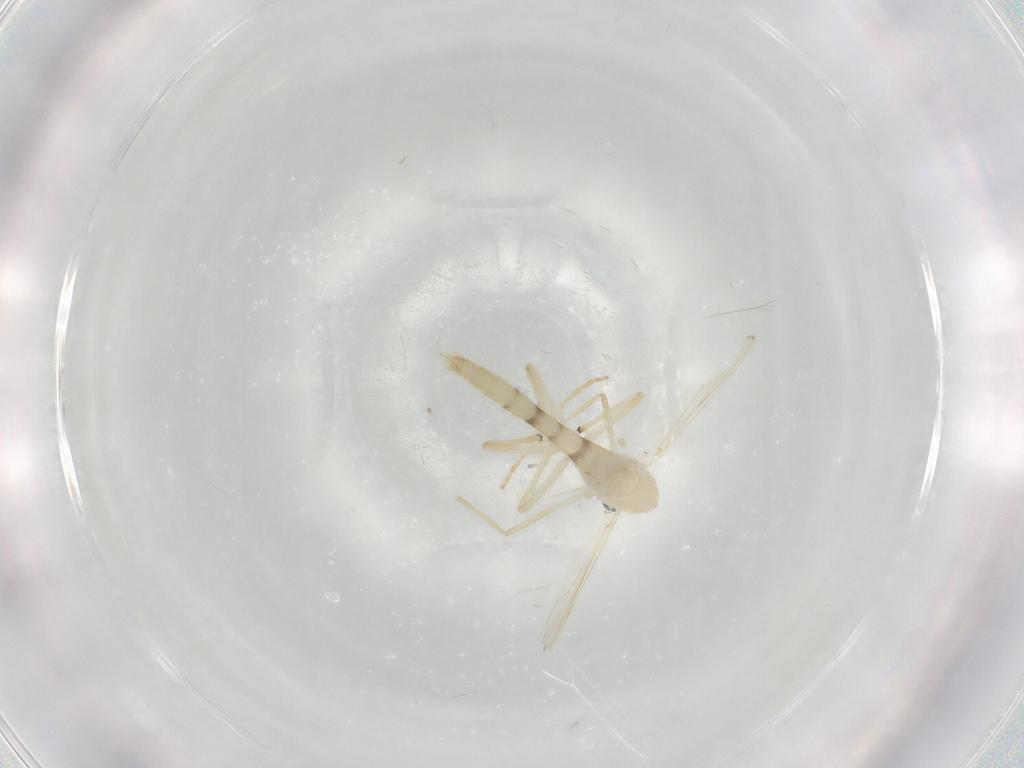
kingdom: Animalia
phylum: Arthropoda
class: Insecta
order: Diptera
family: Chironomidae
